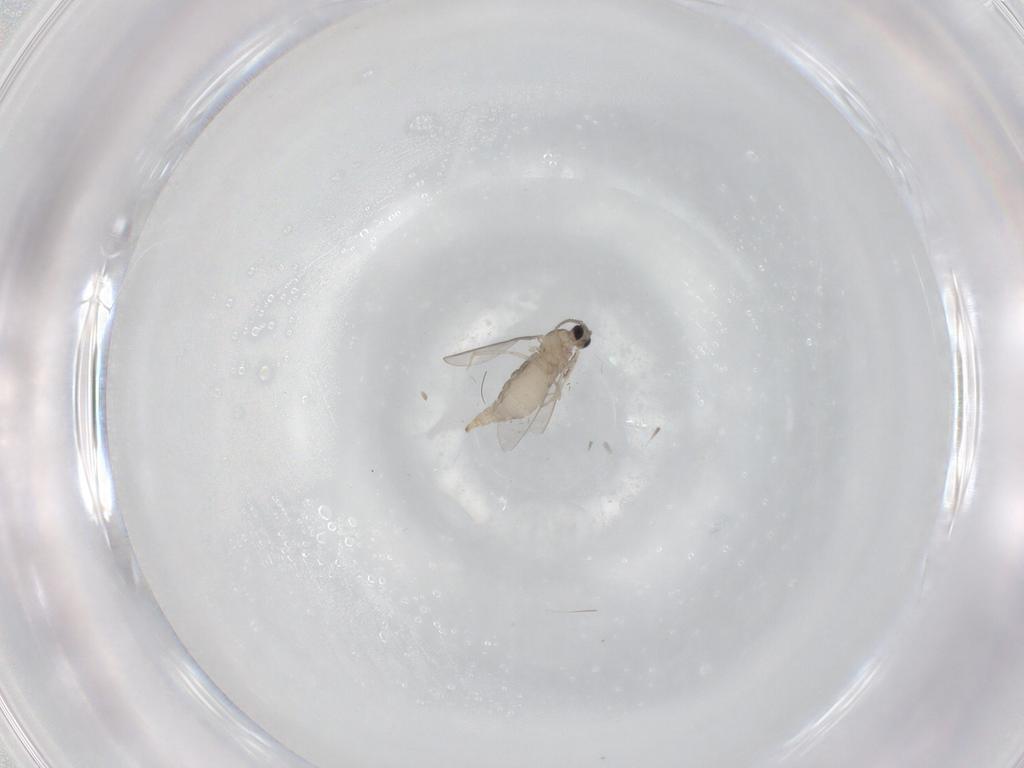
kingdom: Animalia
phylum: Arthropoda
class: Insecta
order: Diptera
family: Cecidomyiidae
